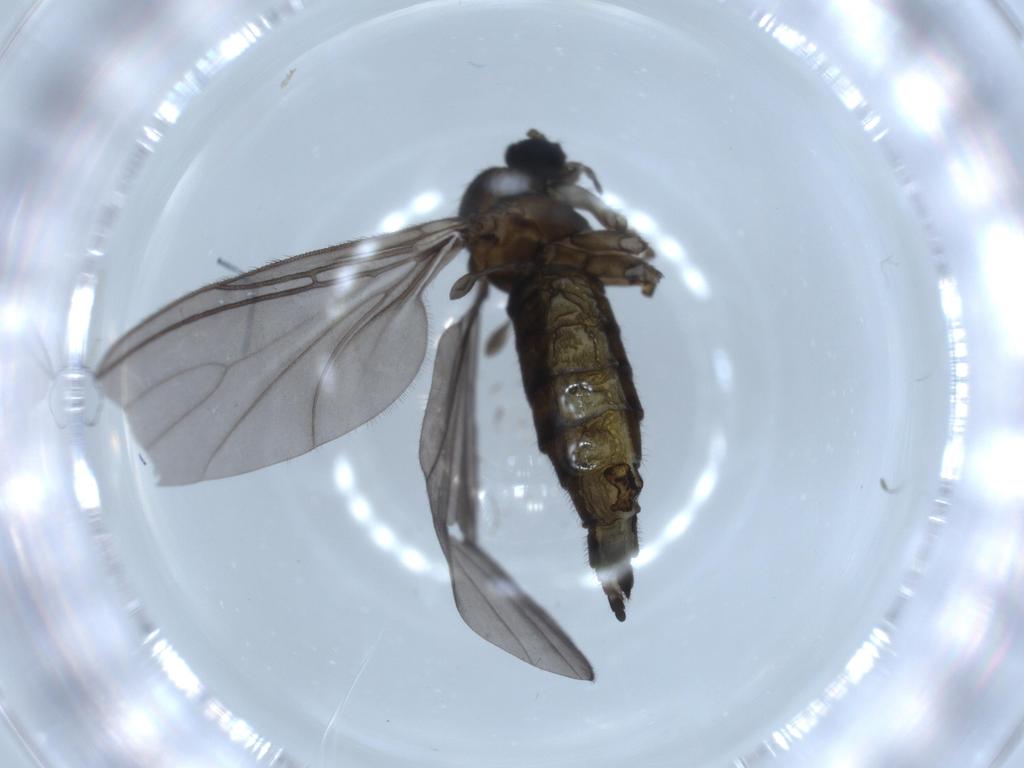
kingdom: Animalia
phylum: Arthropoda
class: Insecta
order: Diptera
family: Sciaridae
